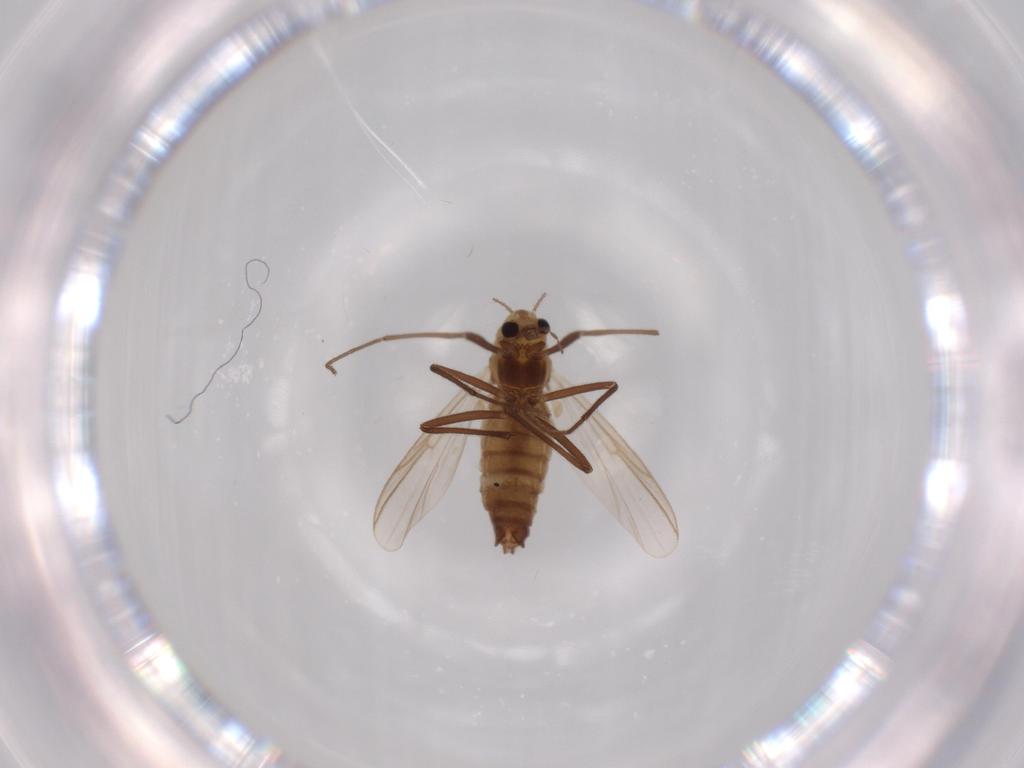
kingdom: Animalia
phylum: Arthropoda
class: Insecta
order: Diptera
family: Chironomidae
